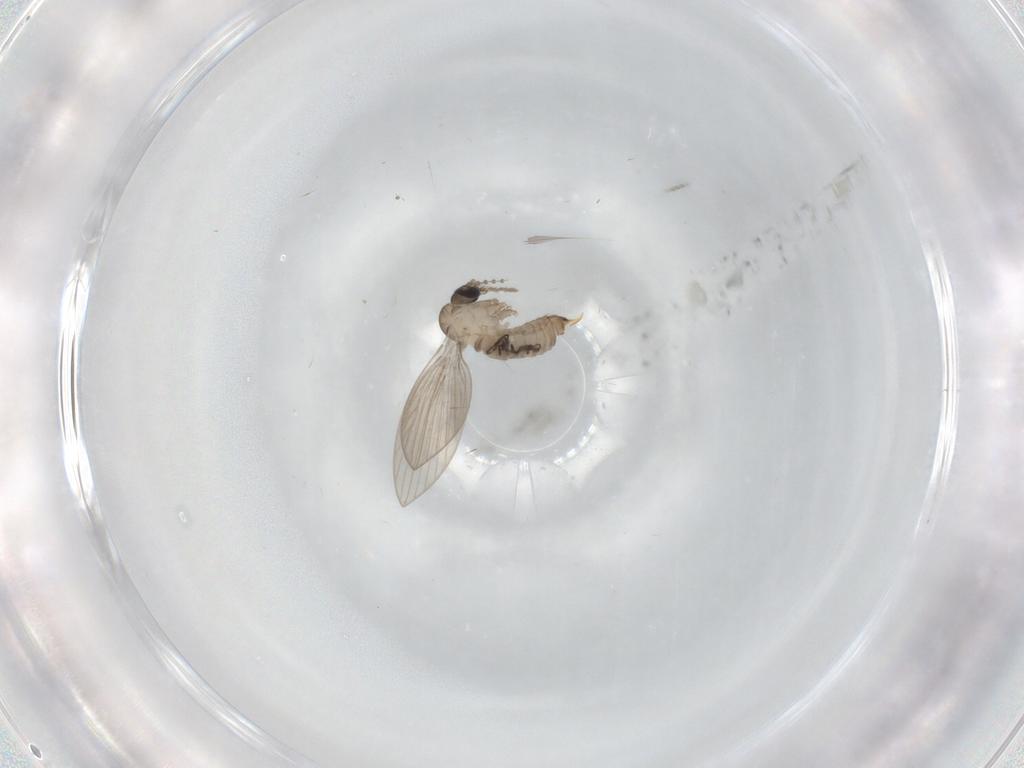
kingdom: Animalia
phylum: Arthropoda
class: Insecta
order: Diptera
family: Psychodidae
